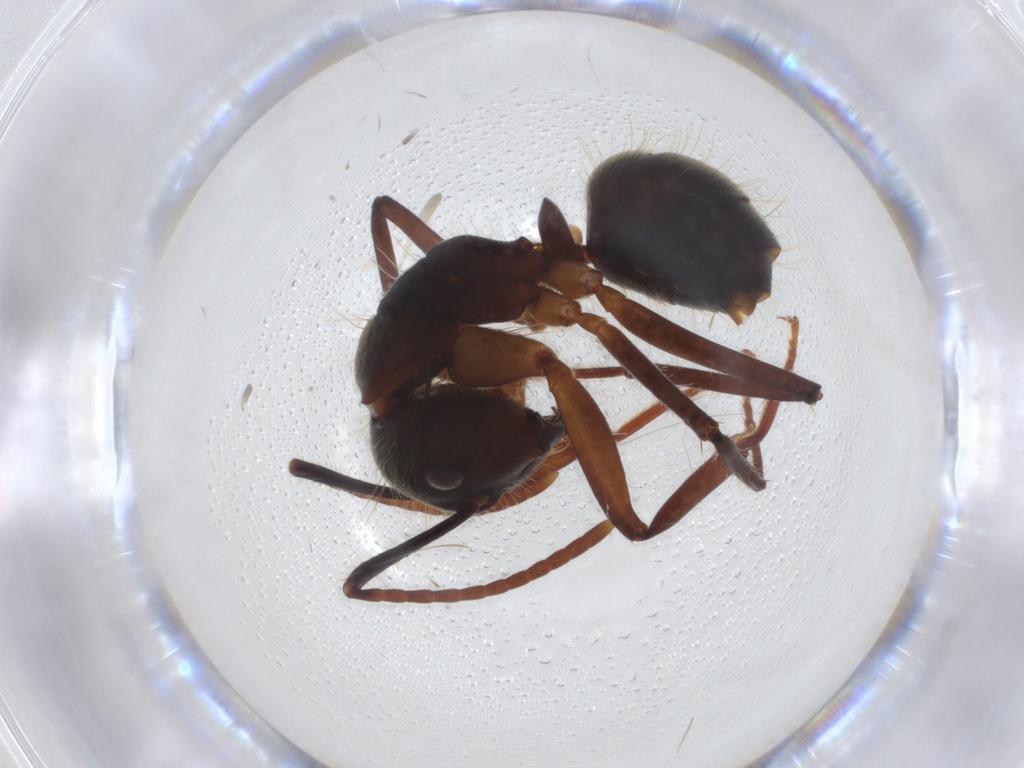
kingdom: Animalia
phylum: Arthropoda
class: Insecta
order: Hymenoptera
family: Formicidae
